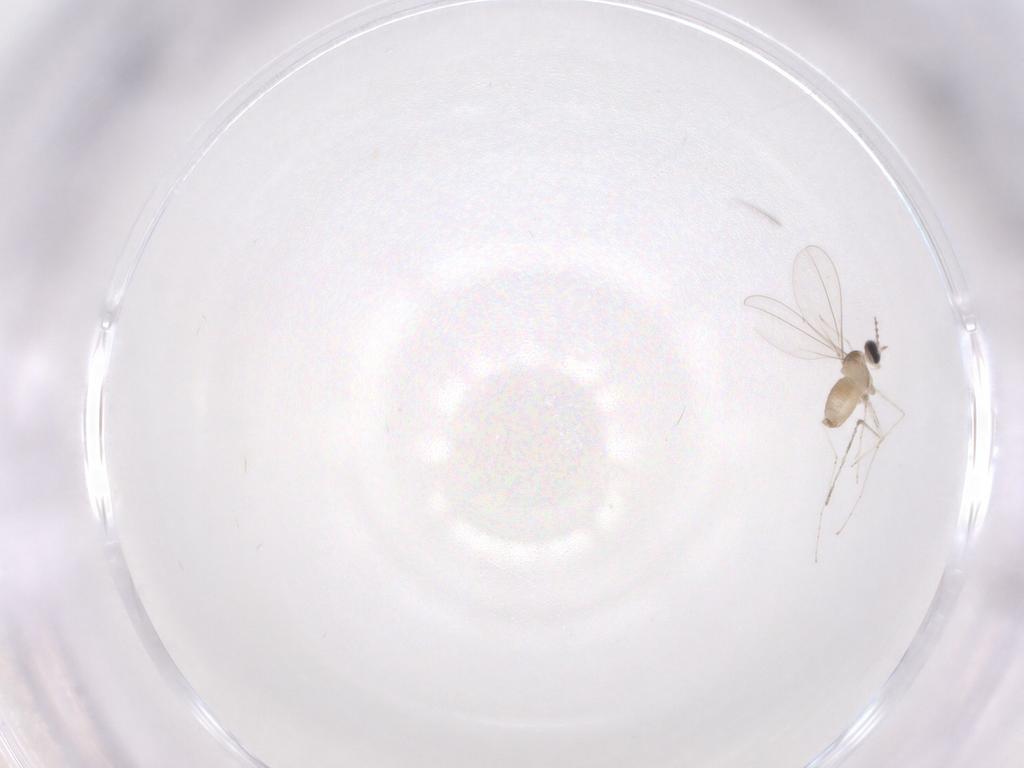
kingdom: Animalia
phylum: Arthropoda
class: Insecta
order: Diptera
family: Cecidomyiidae
